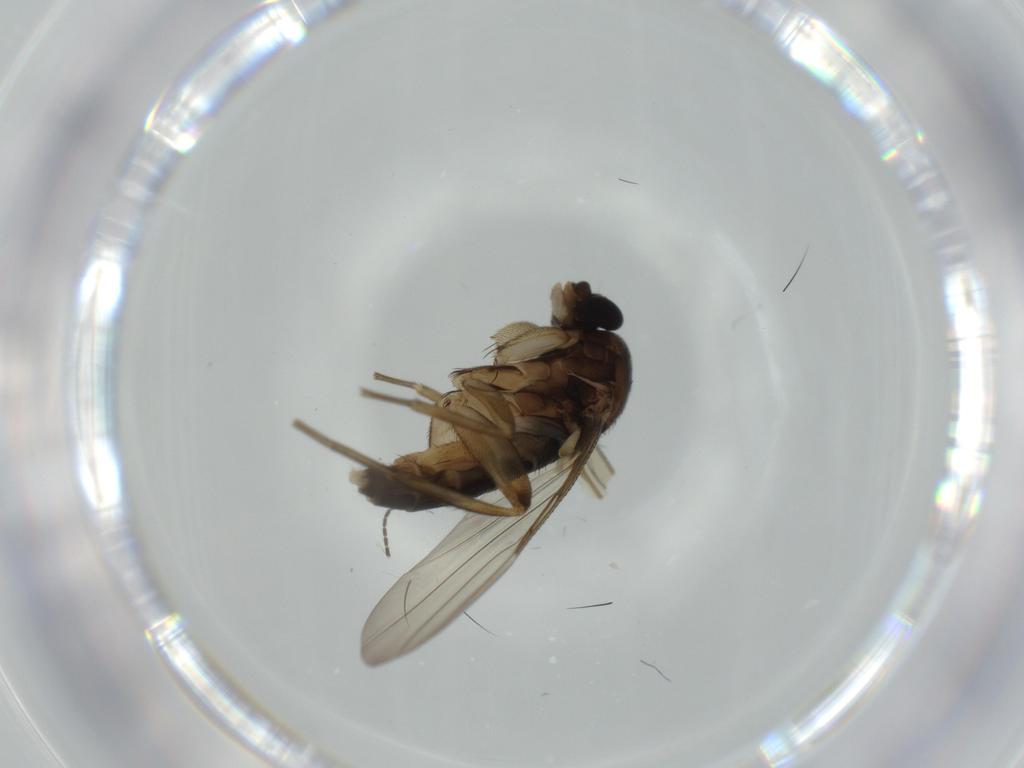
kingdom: Animalia
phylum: Arthropoda
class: Insecta
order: Diptera
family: Phoridae
